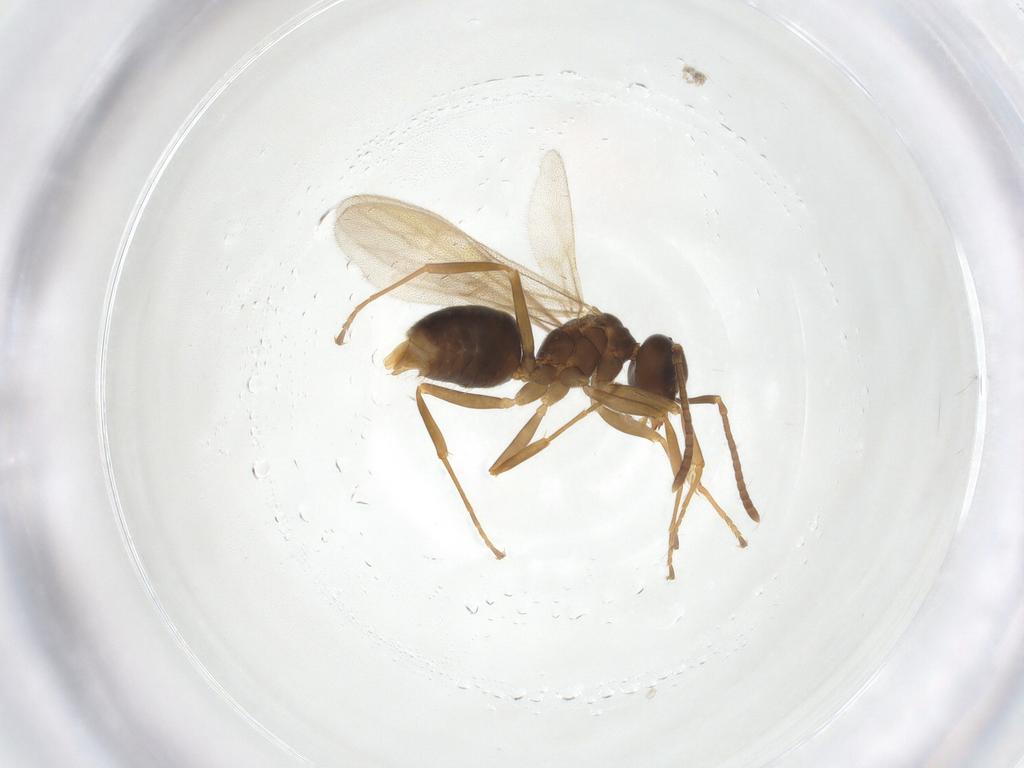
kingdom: Animalia
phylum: Arthropoda
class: Insecta
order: Hymenoptera
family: Formicidae
